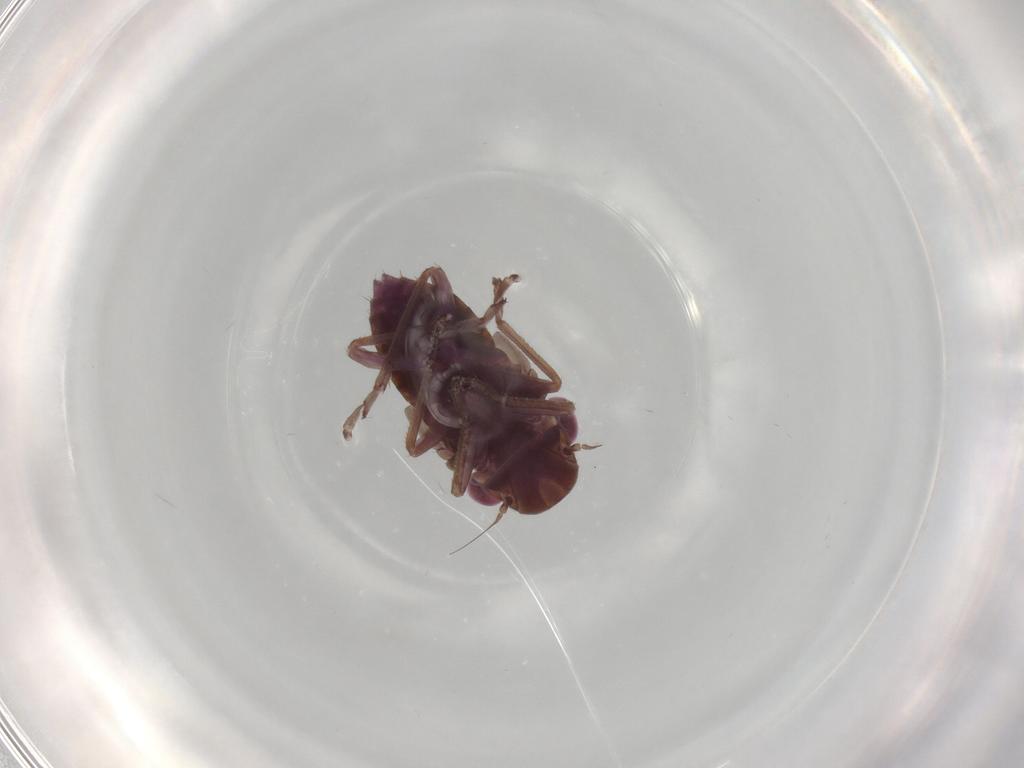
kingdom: Animalia
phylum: Arthropoda
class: Insecta
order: Hemiptera
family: Cicadellidae
